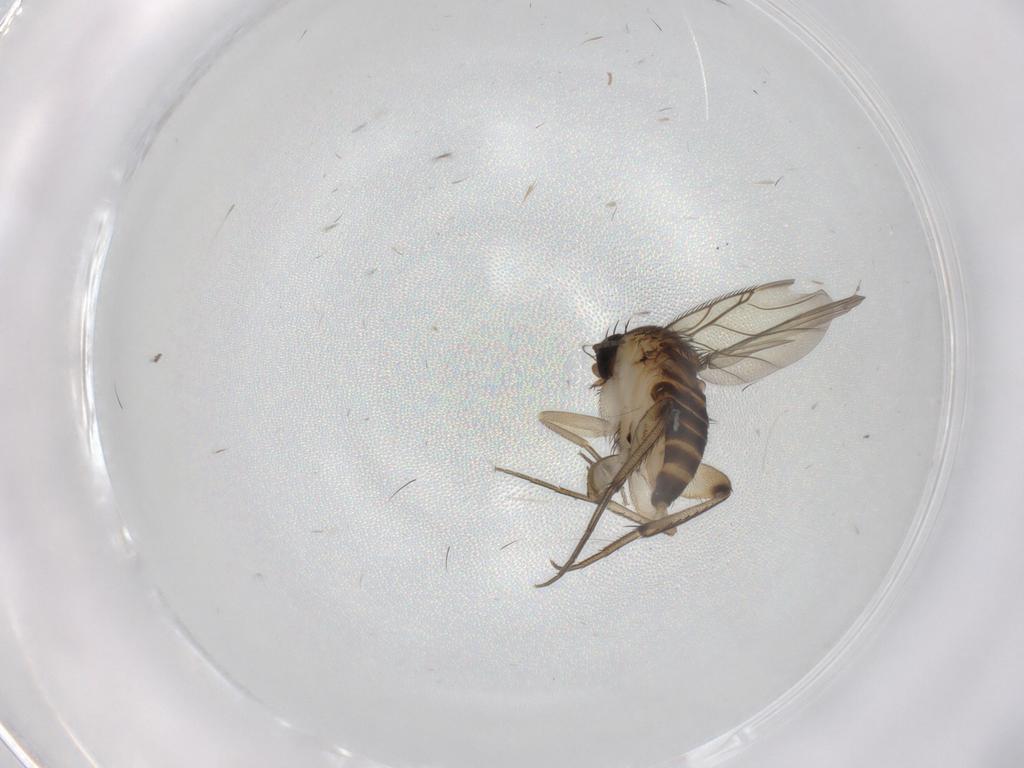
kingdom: Animalia
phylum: Arthropoda
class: Insecta
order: Diptera
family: Phoridae
